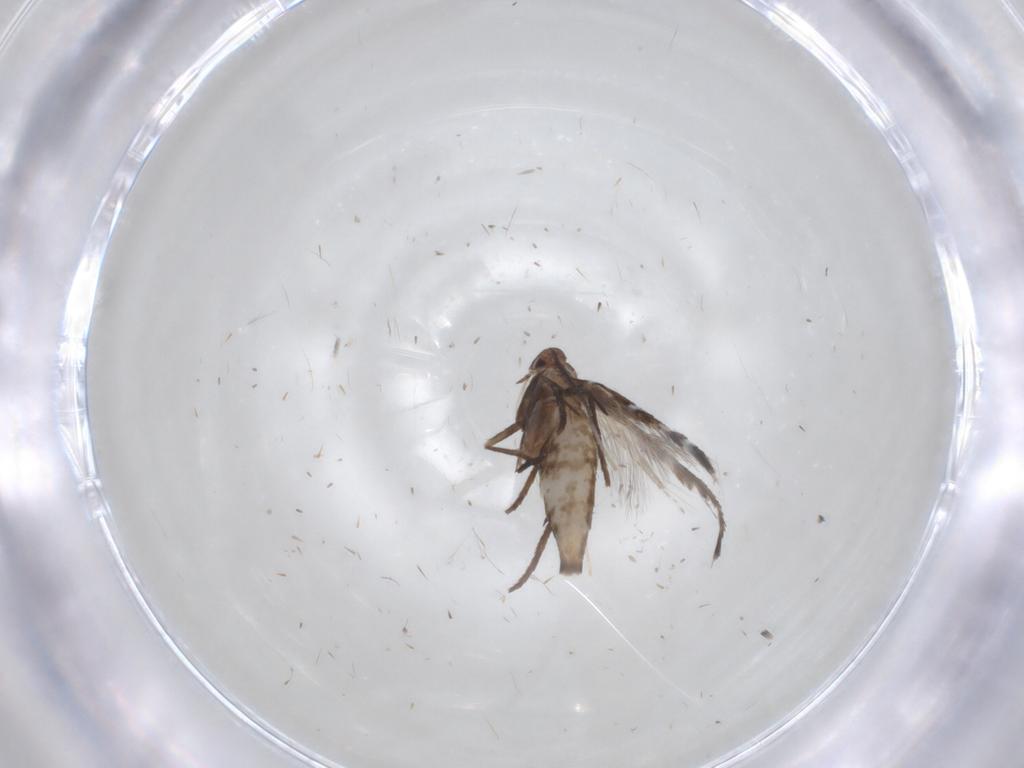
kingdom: Animalia
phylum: Arthropoda
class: Insecta
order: Lepidoptera
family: Gracillariidae
